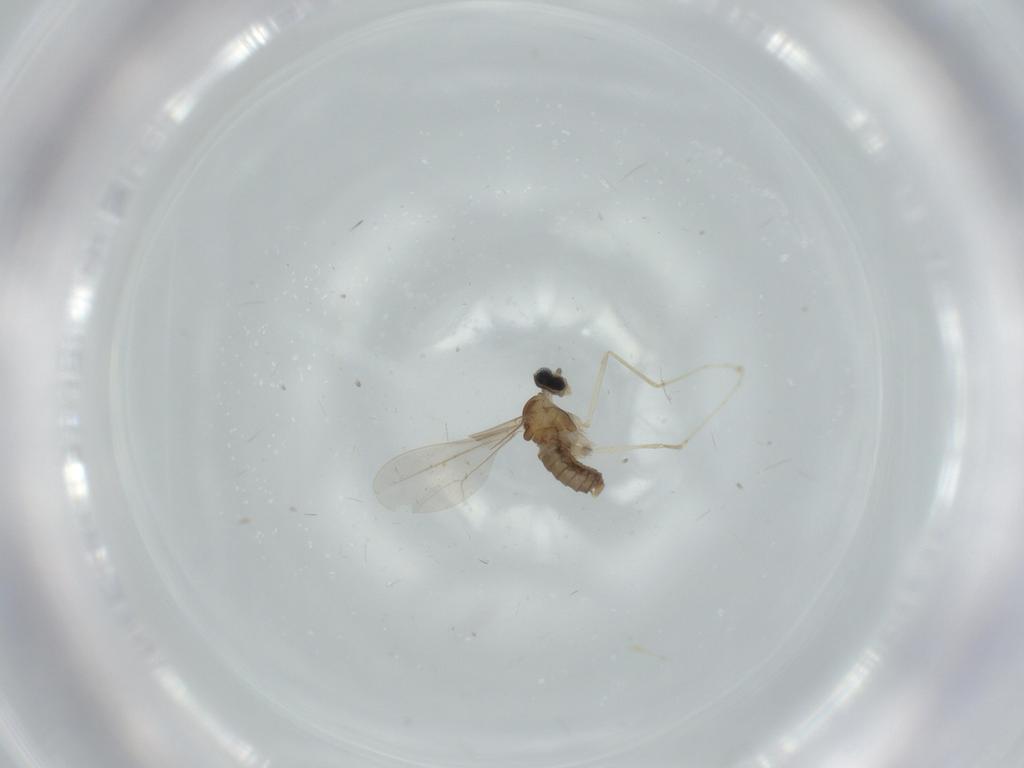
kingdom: Animalia
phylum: Arthropoda
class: Insecta
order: Diptera
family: Cecidomyiidae
